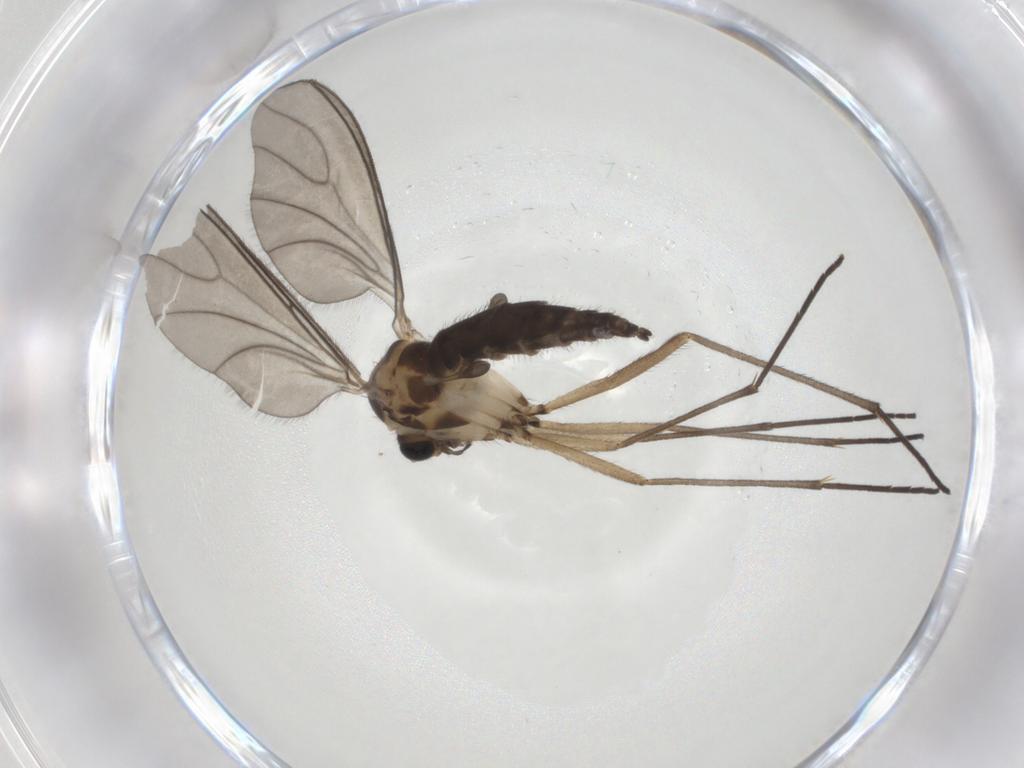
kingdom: Animalia
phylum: Arthropoda
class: Insecta
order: Diptera
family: Sciaridae
